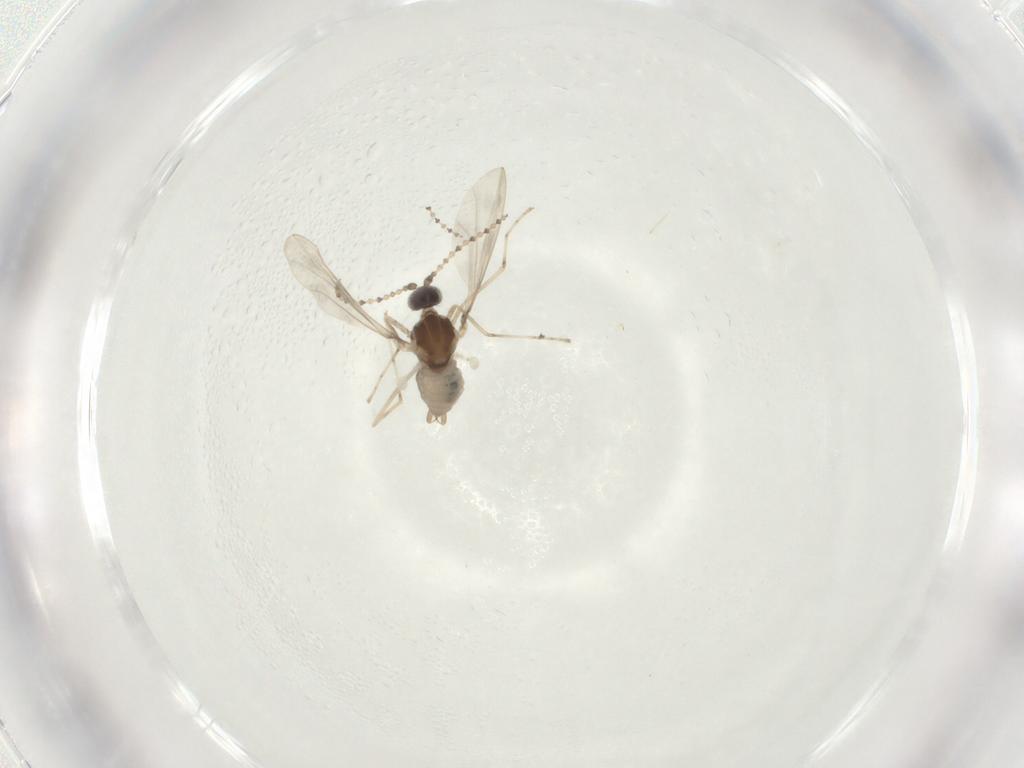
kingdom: Animalia
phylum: Arthropoda
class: Insecta
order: Diptera
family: Cecidomyiidae
